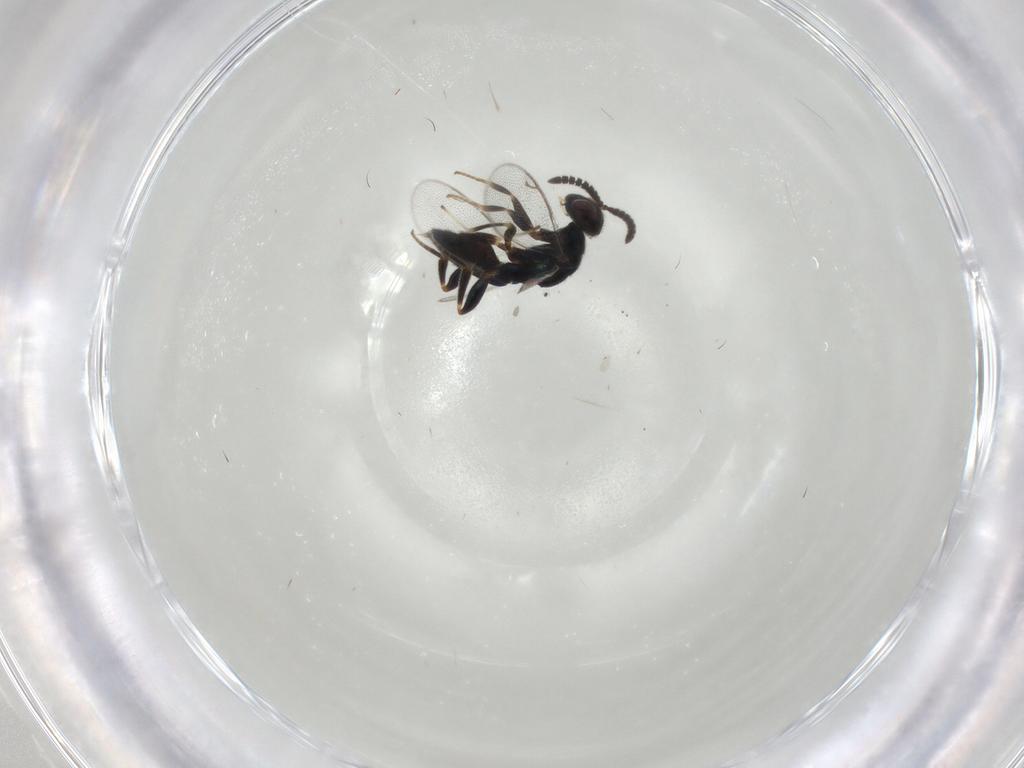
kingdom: Animalia
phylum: Arthropoda
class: Insecta
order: Hymenoptera
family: Cleonyminae
